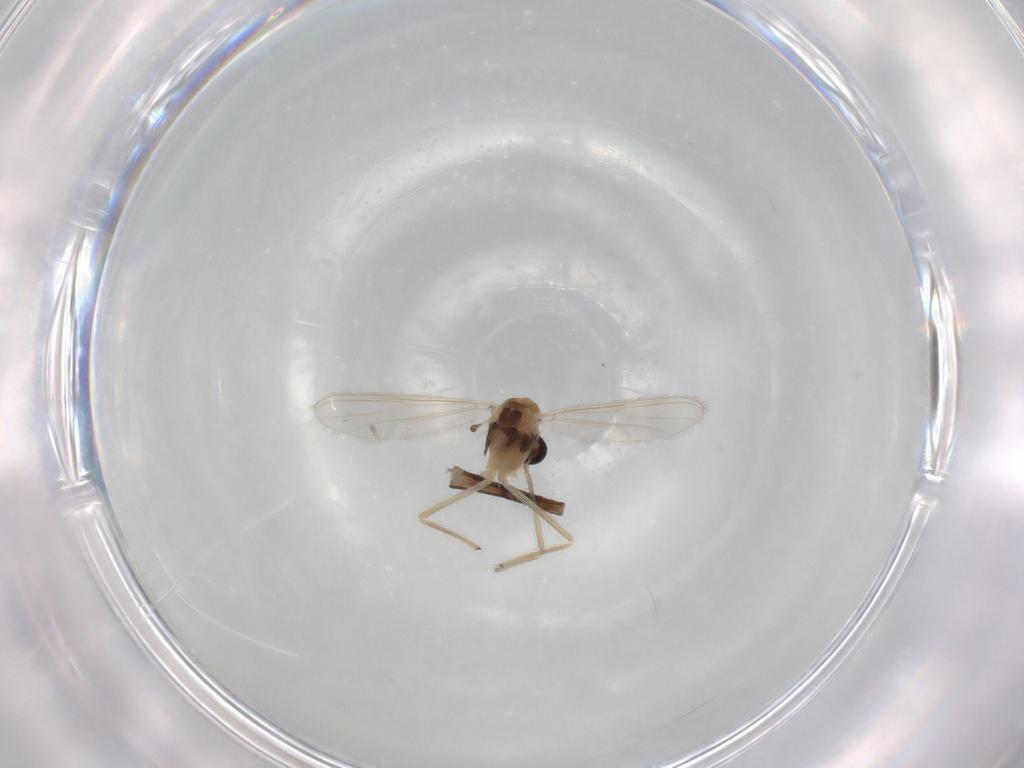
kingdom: Animalia
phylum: Arthropoda
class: Insecta
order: Diptera
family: Chironomidae
